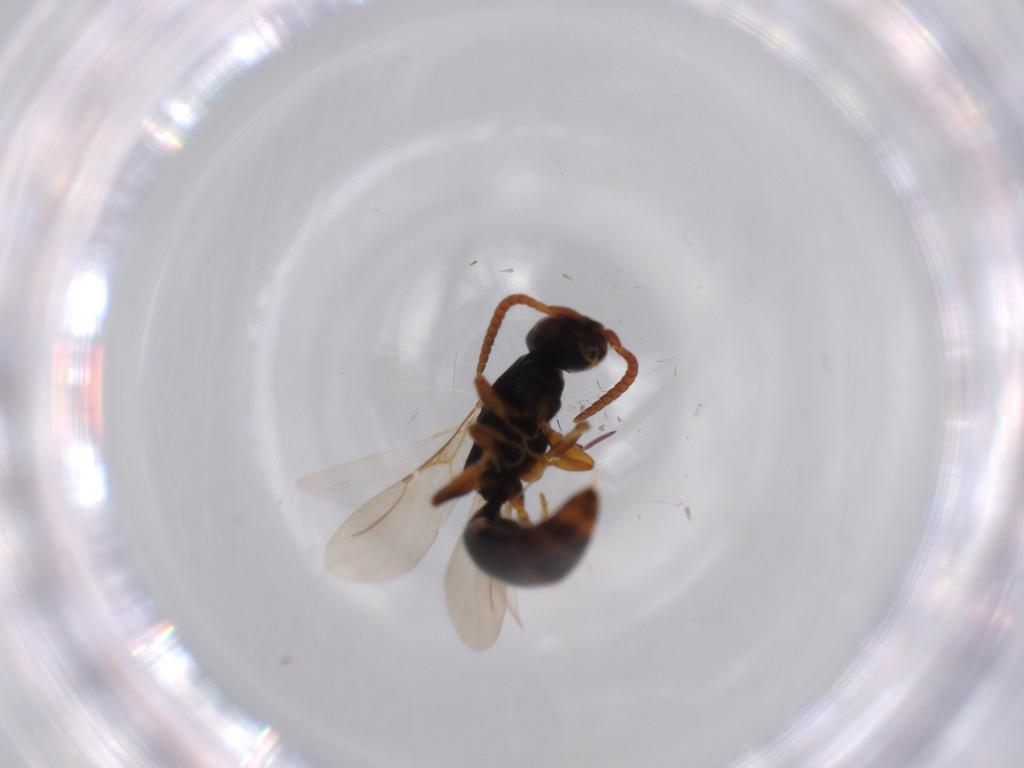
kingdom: Animalia
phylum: Arthropoda
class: Insecta
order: Hymenoptera
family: Bethylidae
